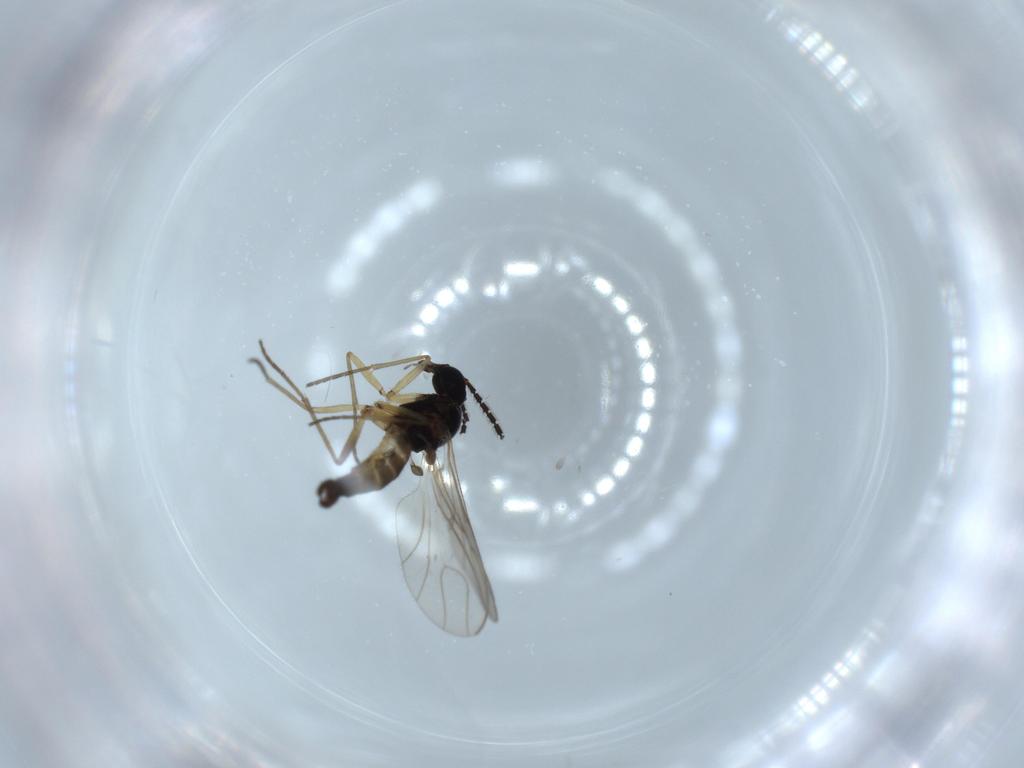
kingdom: Animalia
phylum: Arthropoda
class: Insecta
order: Diptera
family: Sciaridae
